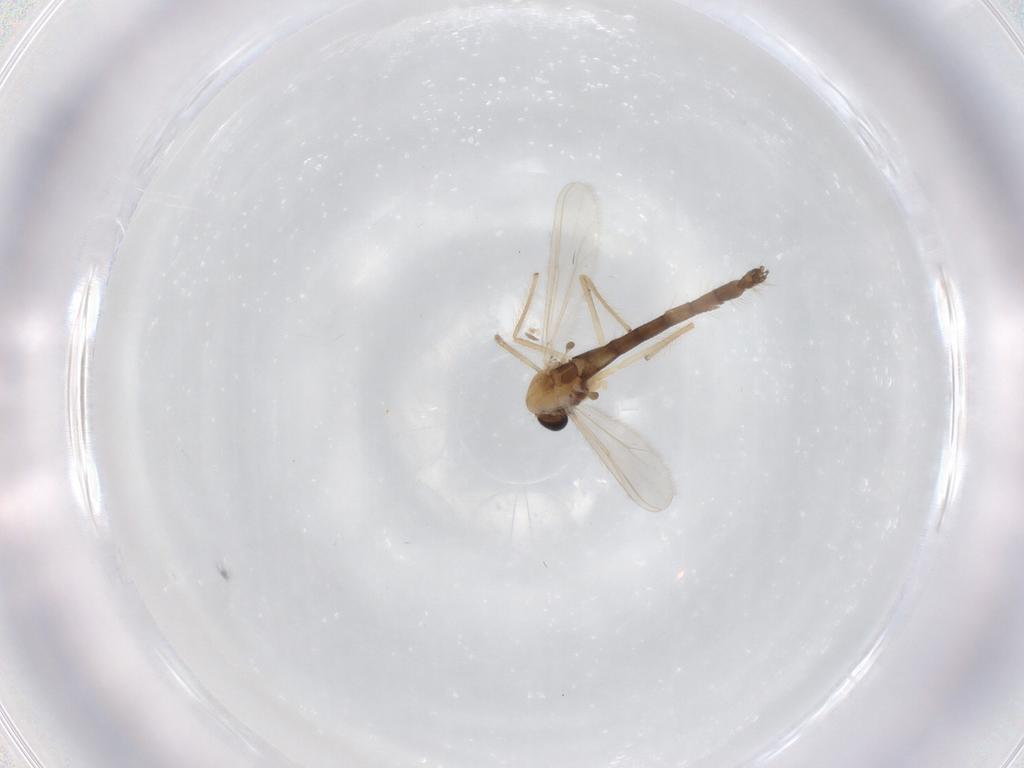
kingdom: Animalia
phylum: Arthropoda
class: Insecta
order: Diptera
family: Chironomidae
